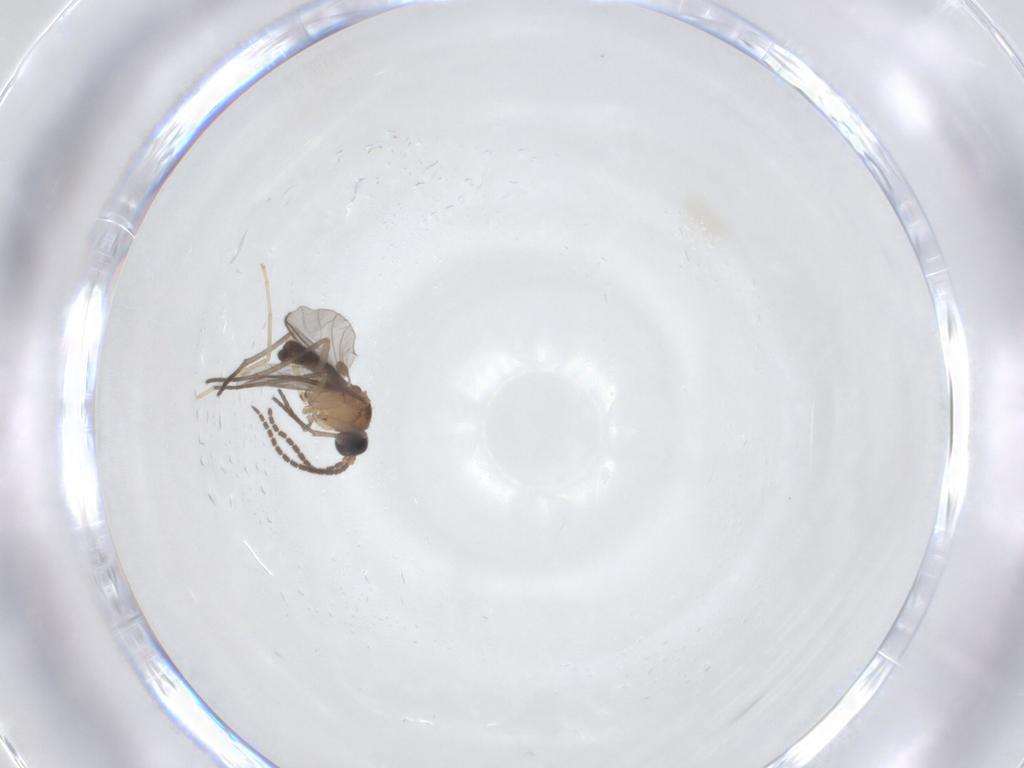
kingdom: Animalia
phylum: Arthropoda
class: Insecta
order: Diptera
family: Cecidomyiidae
